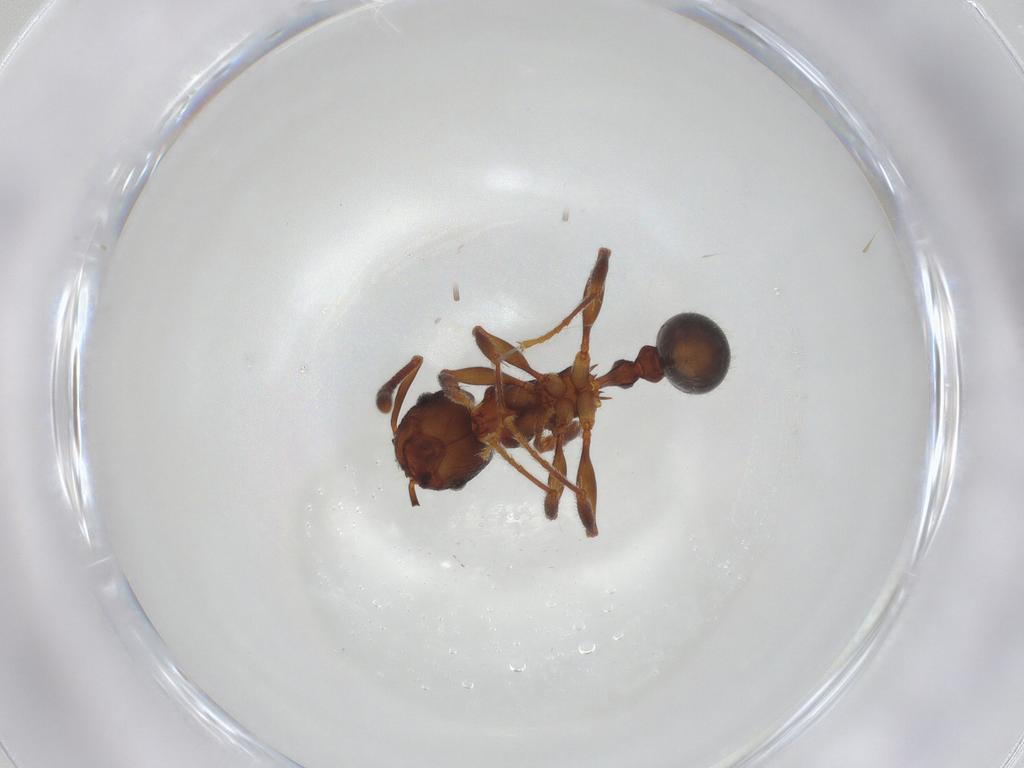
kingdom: Animalia
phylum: Arthropoda
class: Insecta
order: Hymenoptera
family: Formicidae
